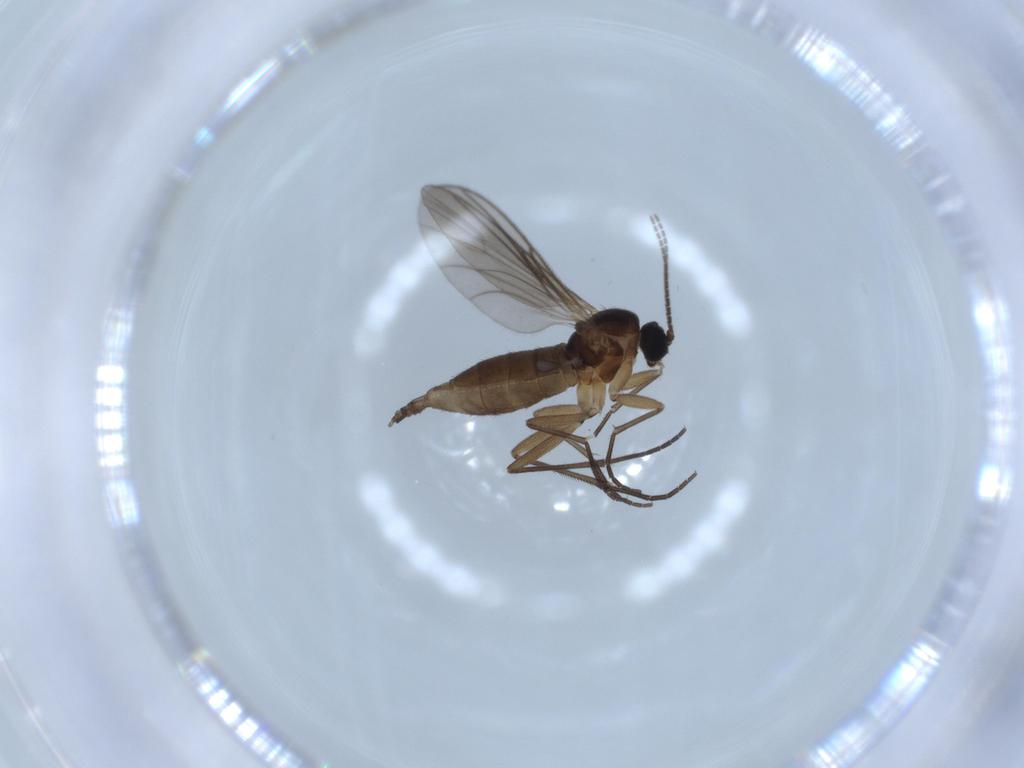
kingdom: Animalia
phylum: Arthropoda
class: Insecta
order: Diptera
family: Sciaridae
